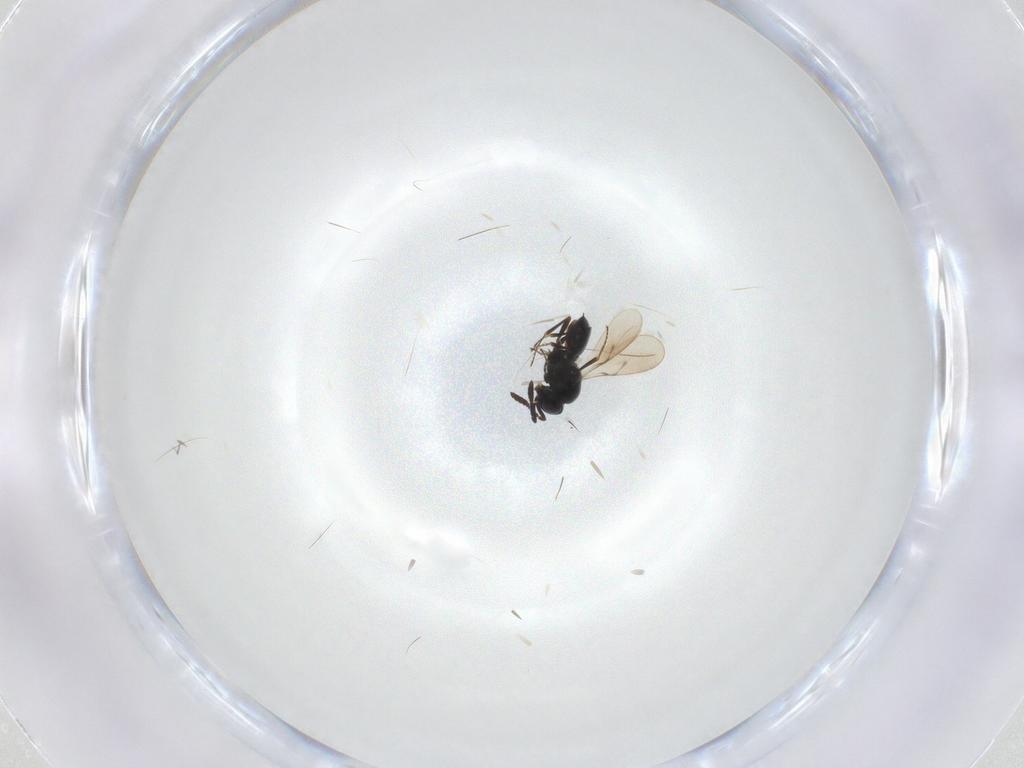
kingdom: Animalia
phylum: Arthropoda
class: Insecta
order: Hymenoptera
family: Scelionidae
